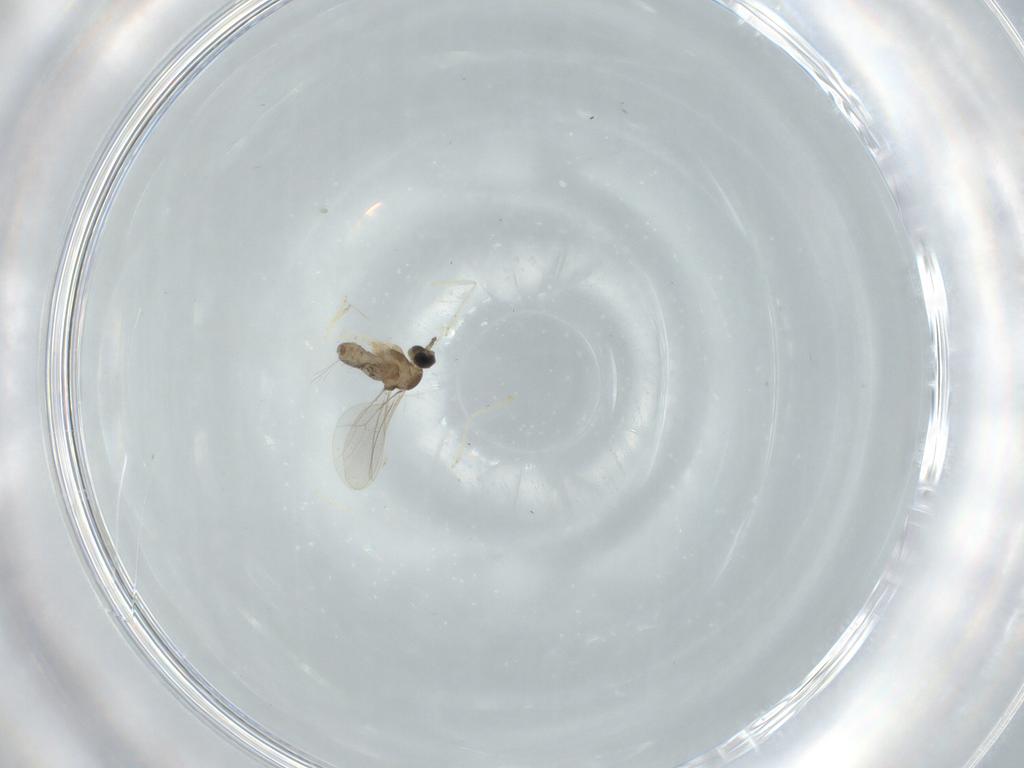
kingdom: Animalia
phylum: Arthropoda
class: Insecta
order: Diptera
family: Cecidomyiidae
